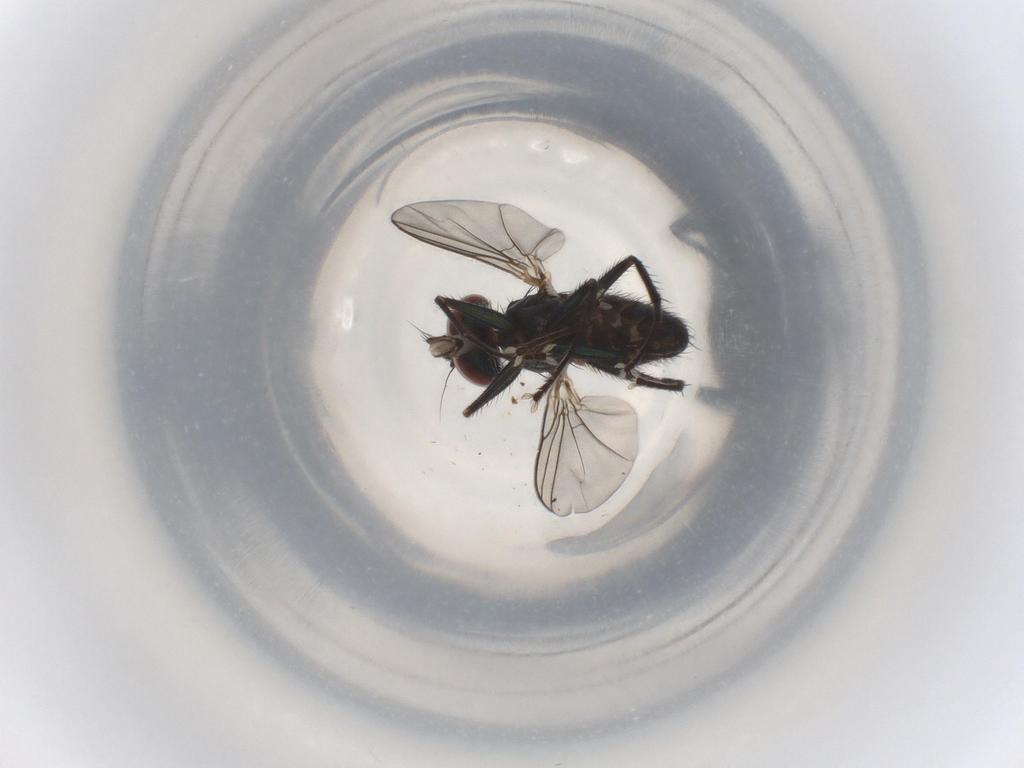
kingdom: Animalia
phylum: Arthropoda
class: Insecta
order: Diptera
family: Dolichopodidae
